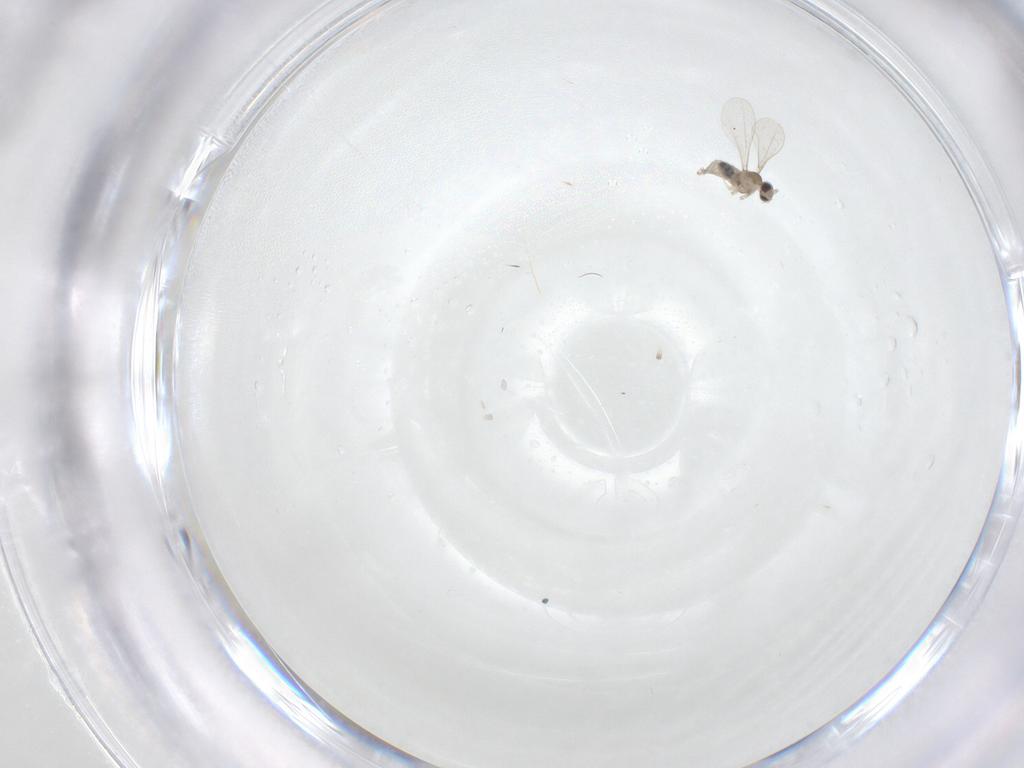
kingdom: Animalia
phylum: Arthropoda
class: Insecta
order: Diptera
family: Cecidomyiidae
